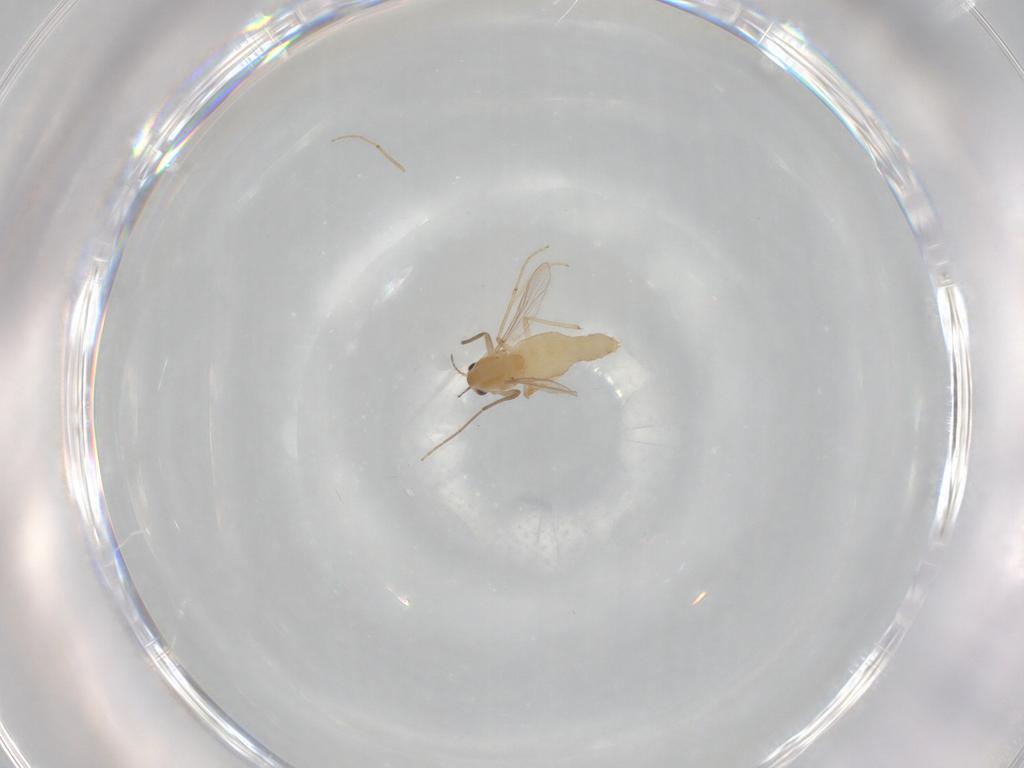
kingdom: Animalia
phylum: Arthropoda
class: Insecta
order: Diptera
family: Chironomidae
